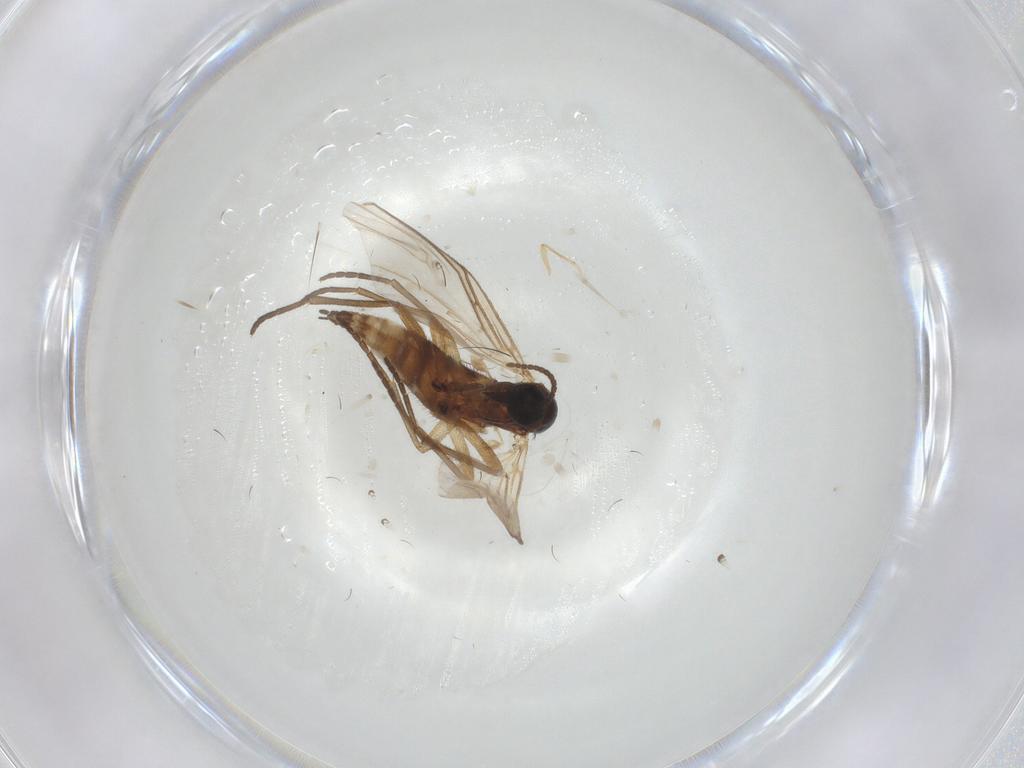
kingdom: Animalia
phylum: Arthropoda
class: Insecta
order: Diptera
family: Sciaridae
